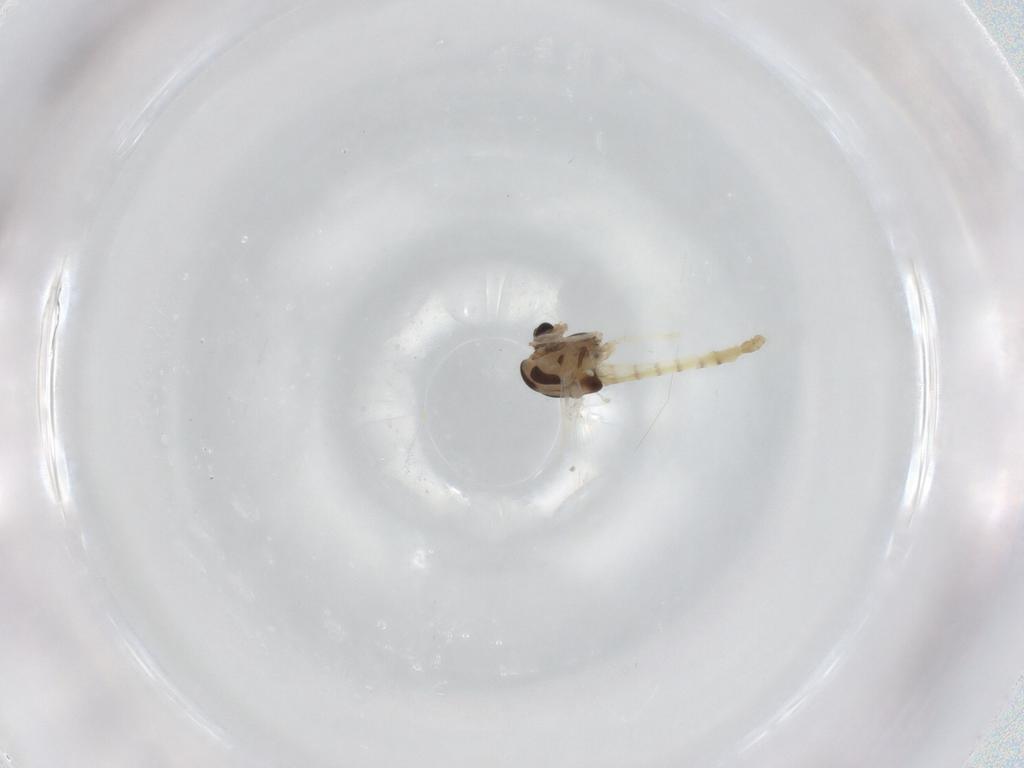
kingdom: Animalia
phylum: Arthropoda
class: Insecta
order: Diptera
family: Chironomidae
